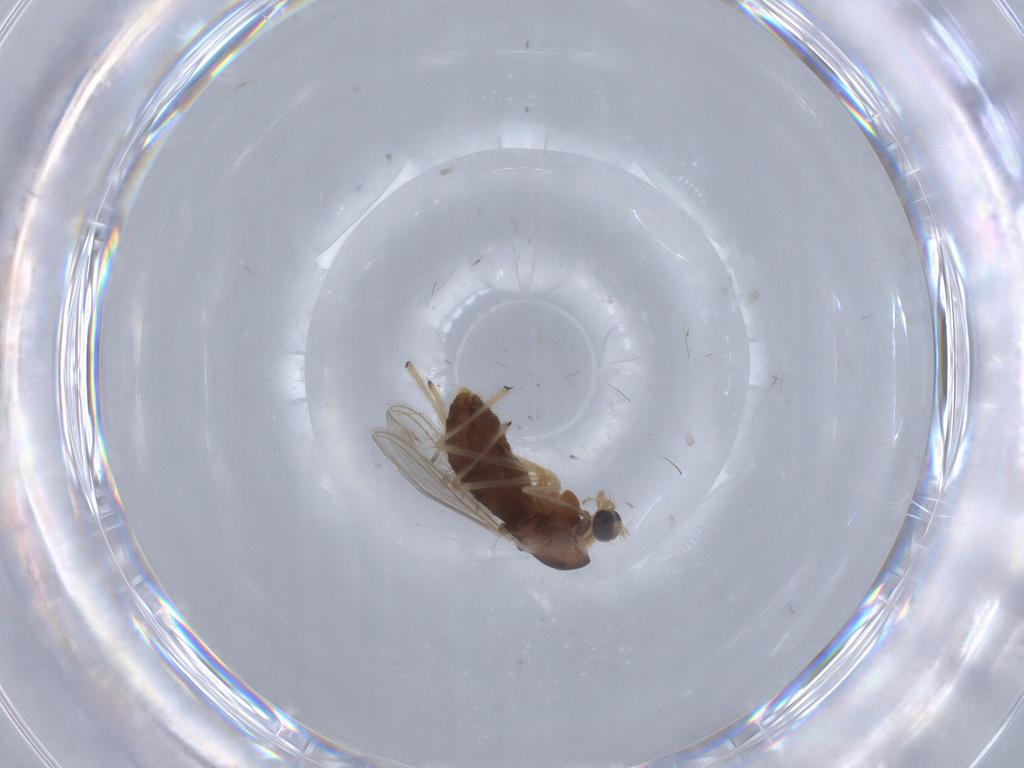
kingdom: Animalia
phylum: Arthropoda
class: Insecta
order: Diptera
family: Chironomidae
